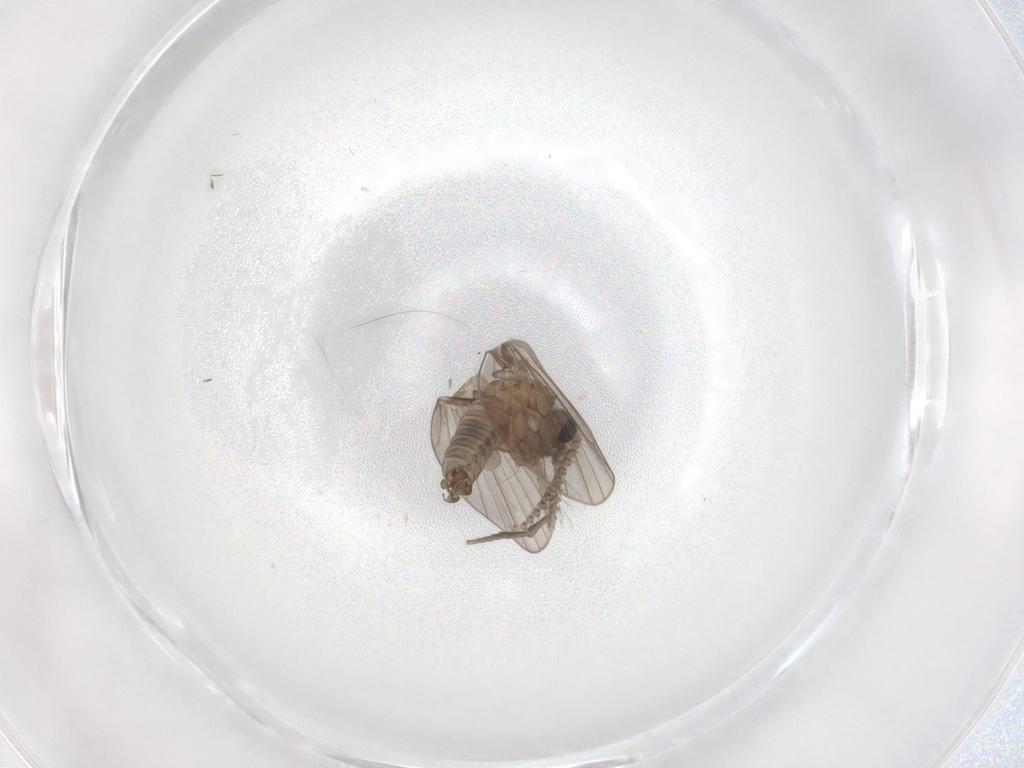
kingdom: Animalia
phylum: Arthropoda
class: Insecta
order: Diptera
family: Psychodidae
